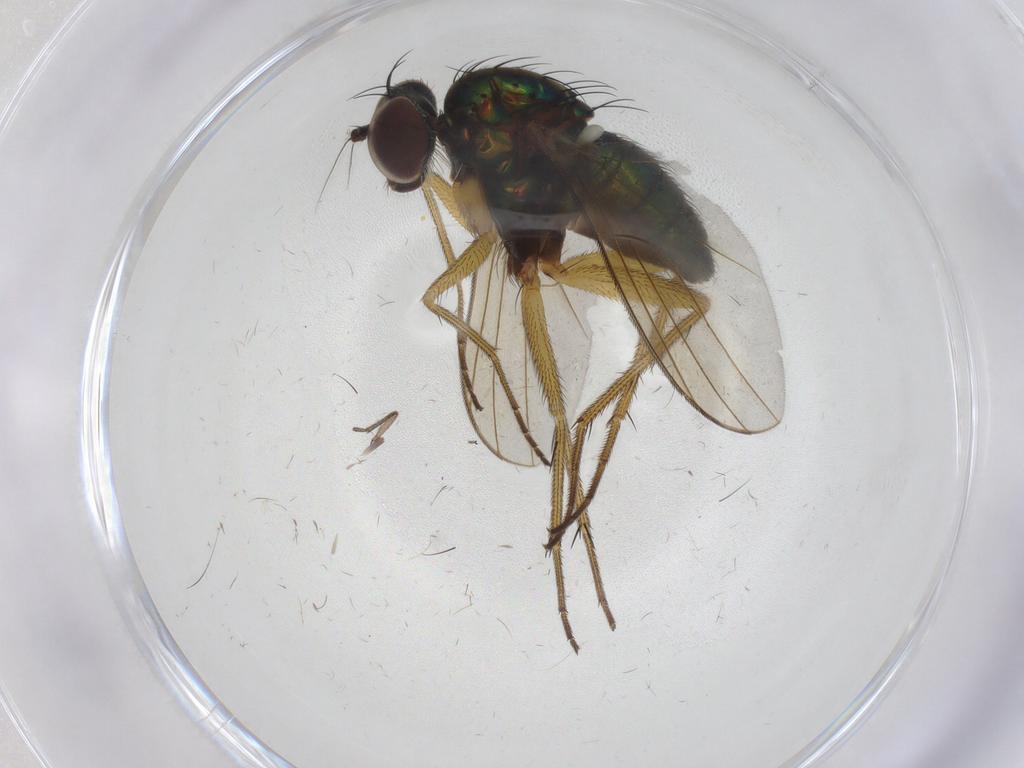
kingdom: Animalia
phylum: Arthropoda
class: Insecta
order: Diptera
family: Dolichopodidae
